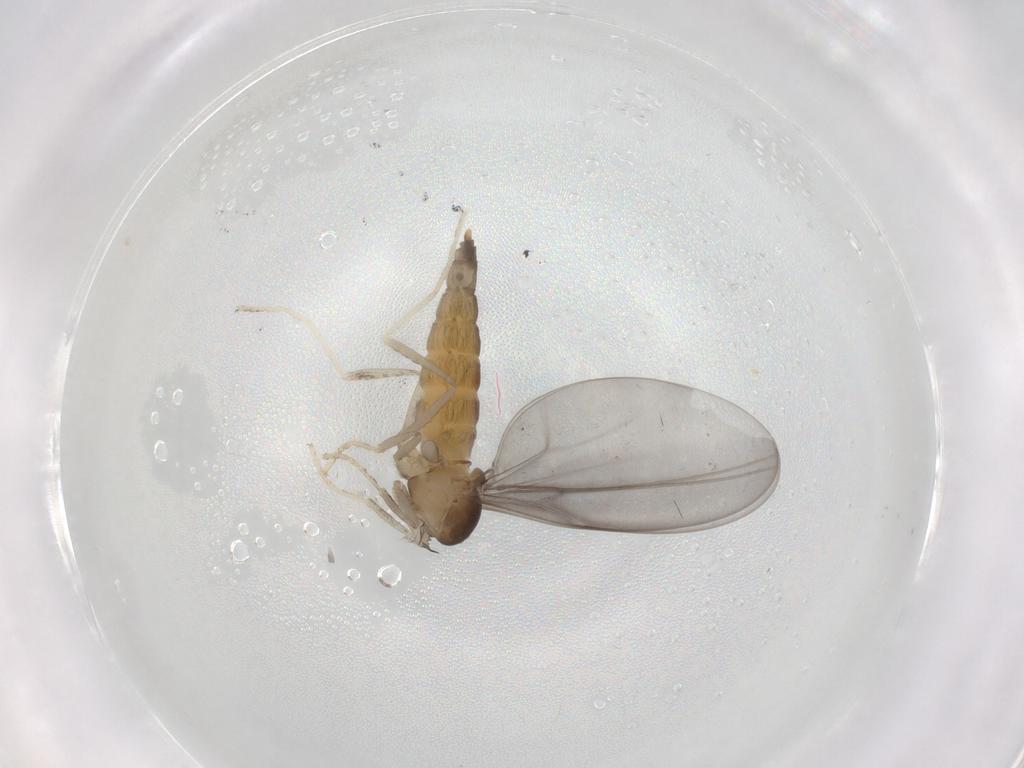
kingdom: Animalia
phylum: Arthropoda
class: Insecta
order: Diptera
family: Cecidomyiidae
